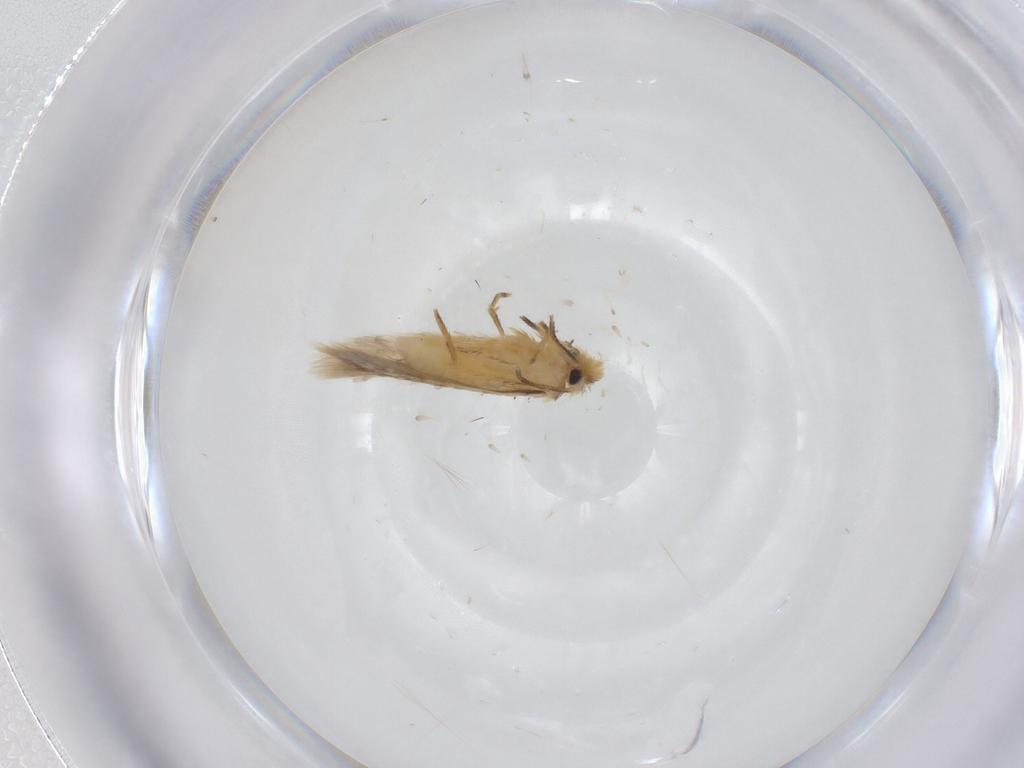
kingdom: Animalia
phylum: Arthropoda
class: Insecta
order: Lepidoptera
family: Nepticulidae
